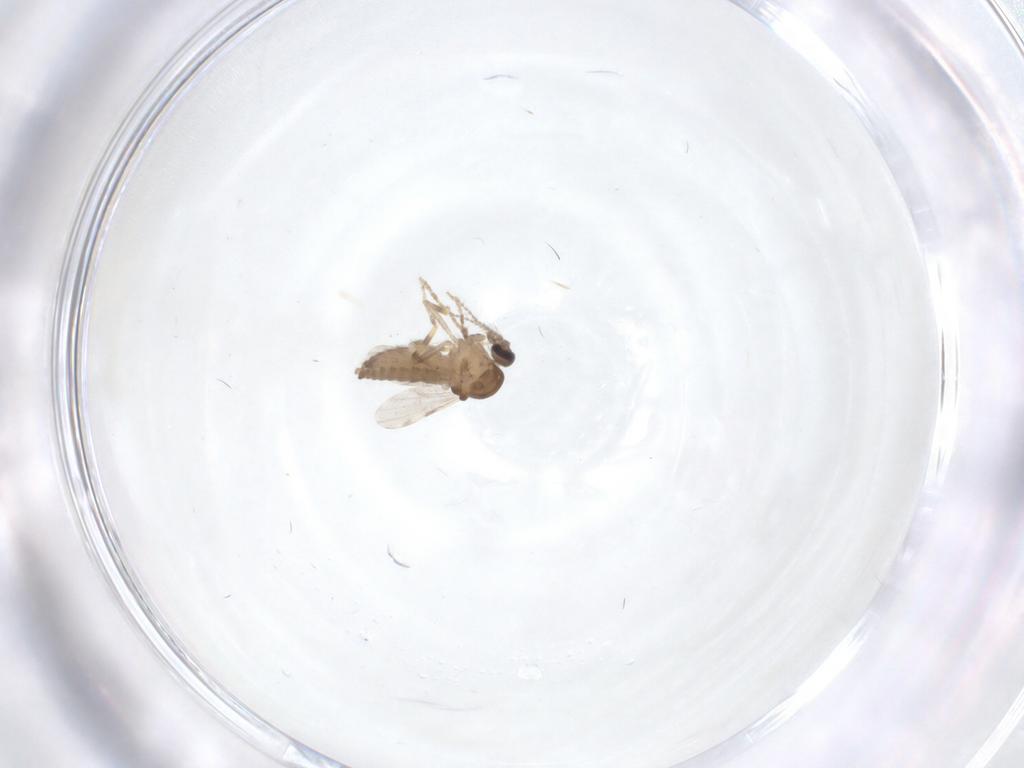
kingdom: Animalia
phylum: Arthropoda
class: Insecta
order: Diptera
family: Ceratopogonidae
